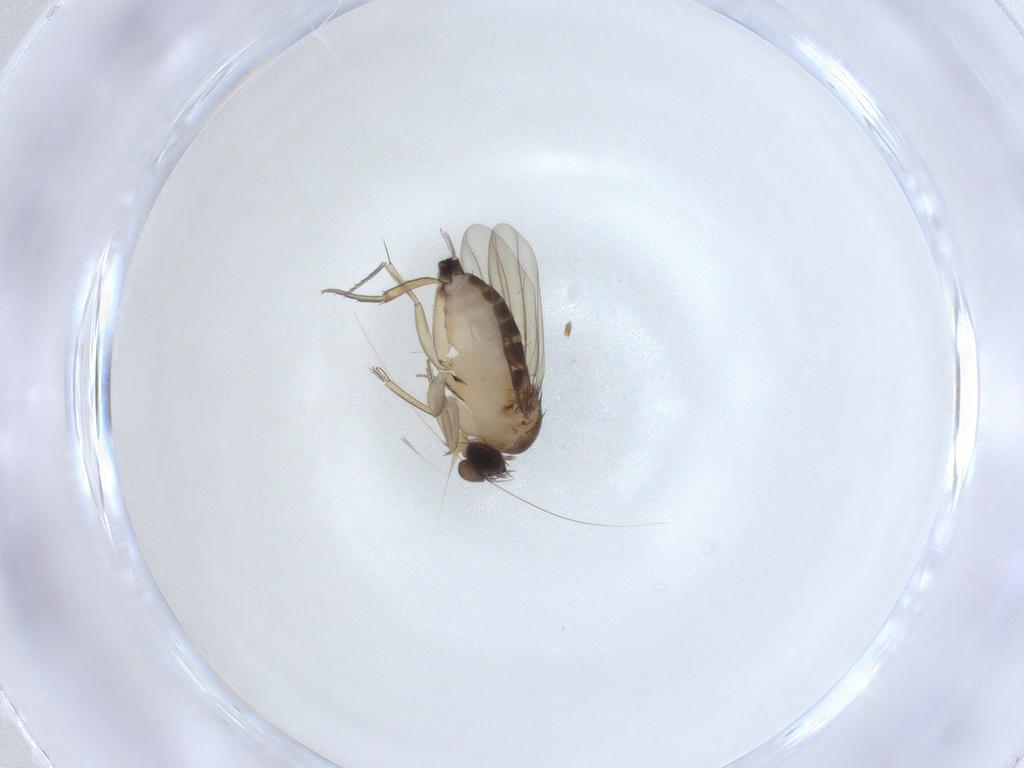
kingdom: Animalia
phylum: Arthropoda
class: Insecta
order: Diptera
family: Phoridae
